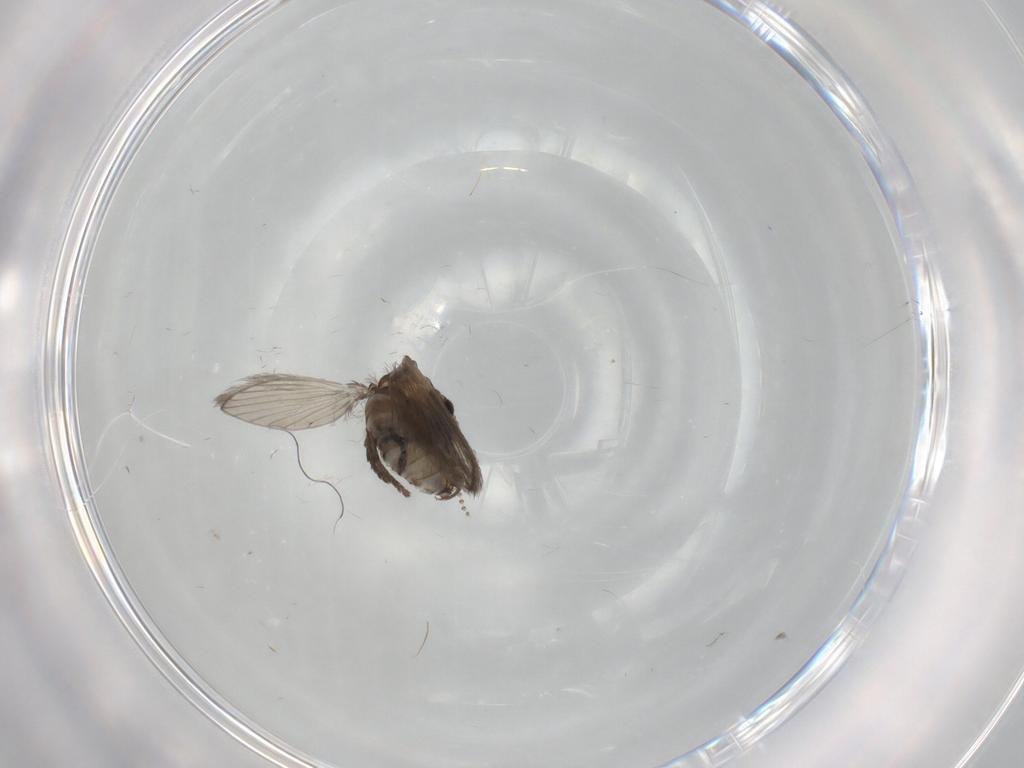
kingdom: Animalia
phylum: Arthropoda
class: Insecta
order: Diptera
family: Psychodidae
